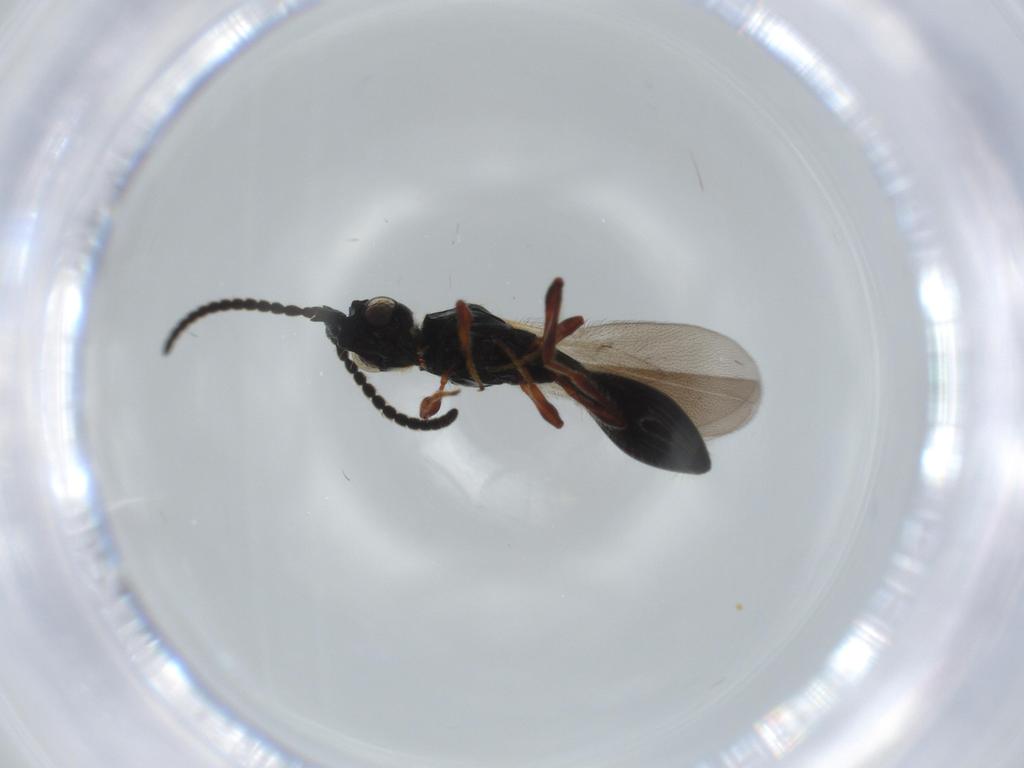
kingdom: Animalia
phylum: Arthropoda
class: Insecta
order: Hymenoptera
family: Diapriidae
